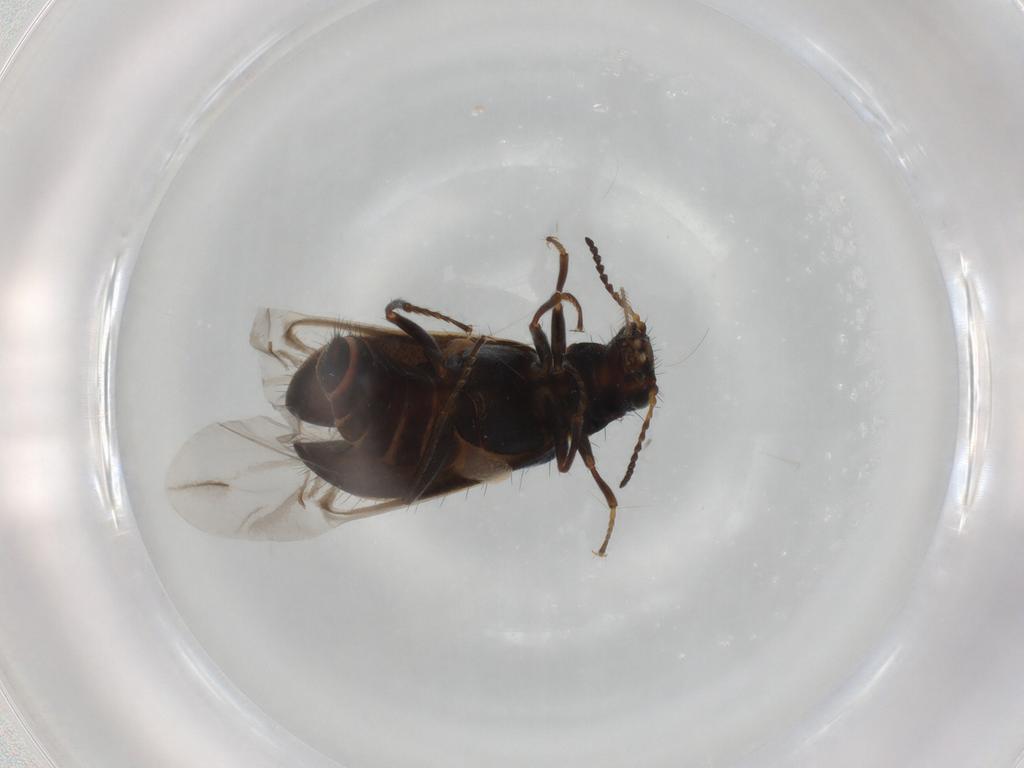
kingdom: Animalia
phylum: Arthropoda
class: Insecta
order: Coleoptera
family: Melyridae
